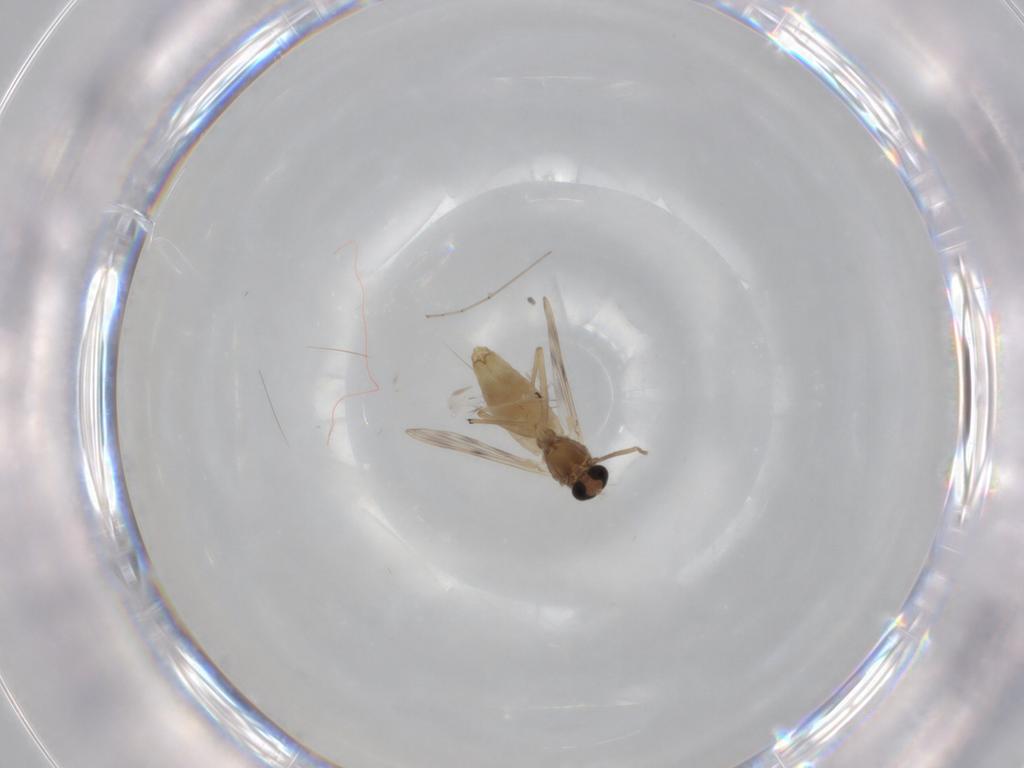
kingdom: Animalia
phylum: Arthropoda
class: Insecta
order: Diptera
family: Chironomidae
